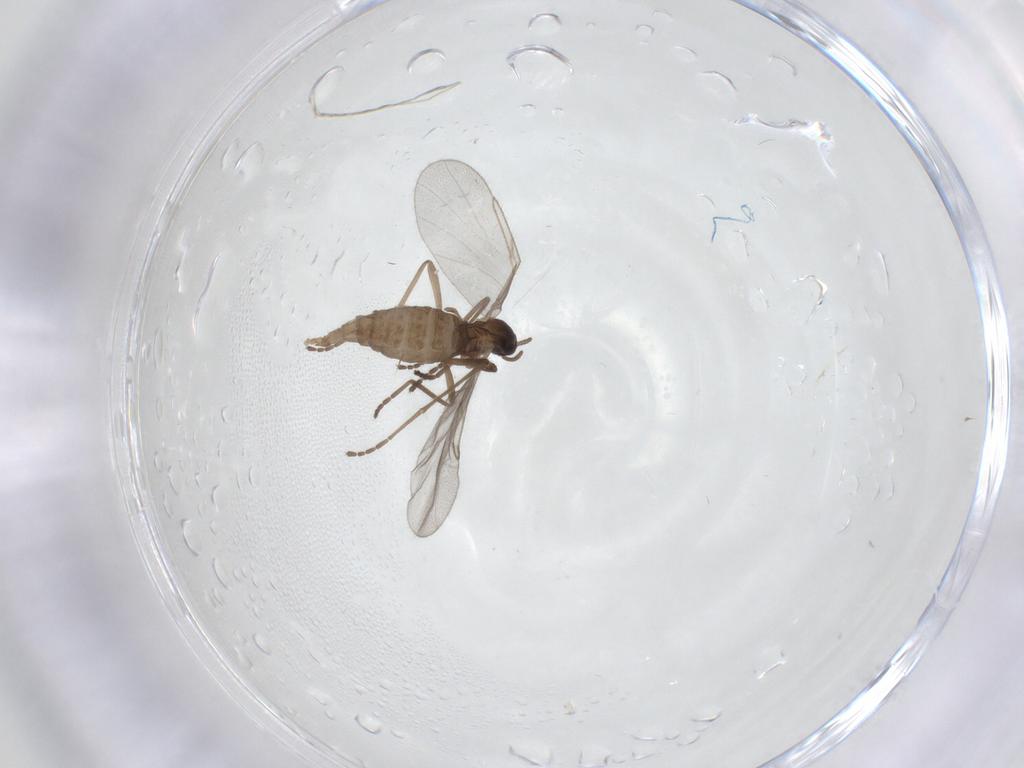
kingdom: Animalia
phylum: Arthropoda
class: Insecta
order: Diptera
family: Cecidomyiidae
